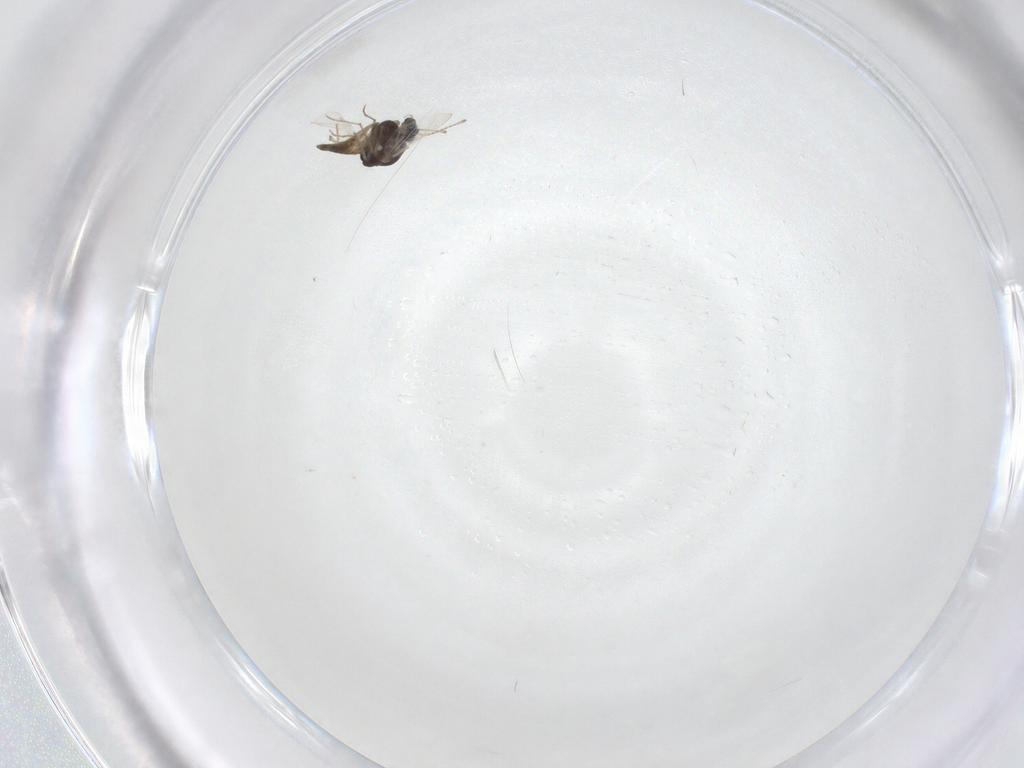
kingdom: Animalia
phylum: Arthropoda
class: Insecta
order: Diptera
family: Chironomidae
